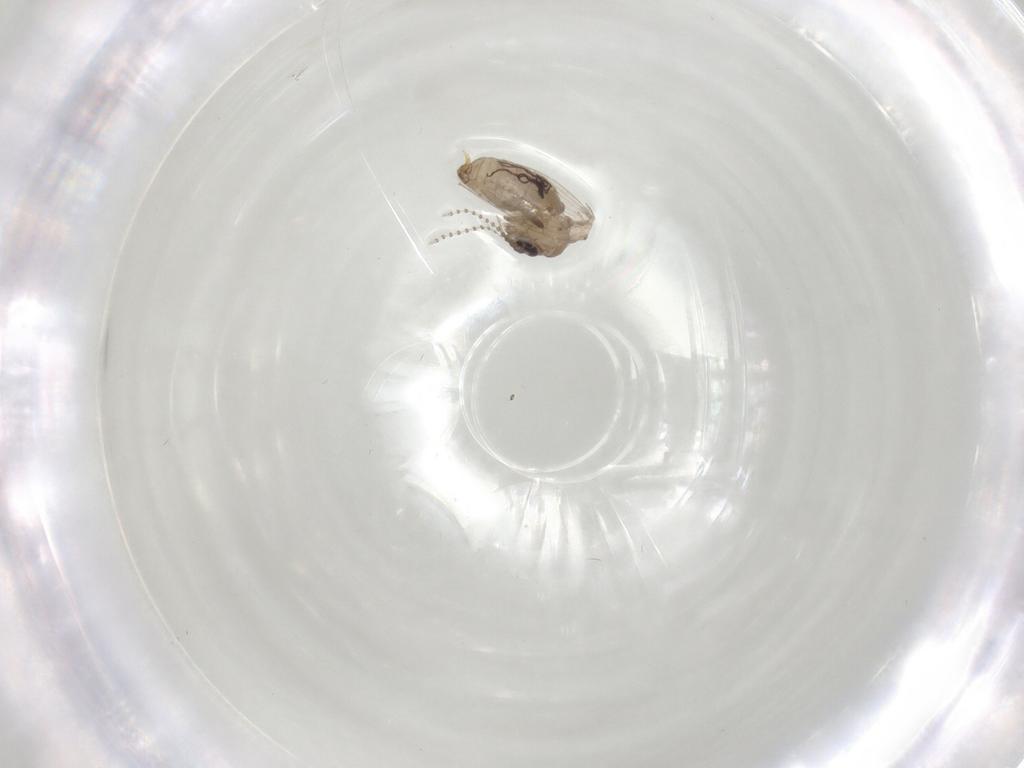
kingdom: Animalia
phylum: Arthropoda
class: Insecta
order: Diptera
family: Psychodidae
